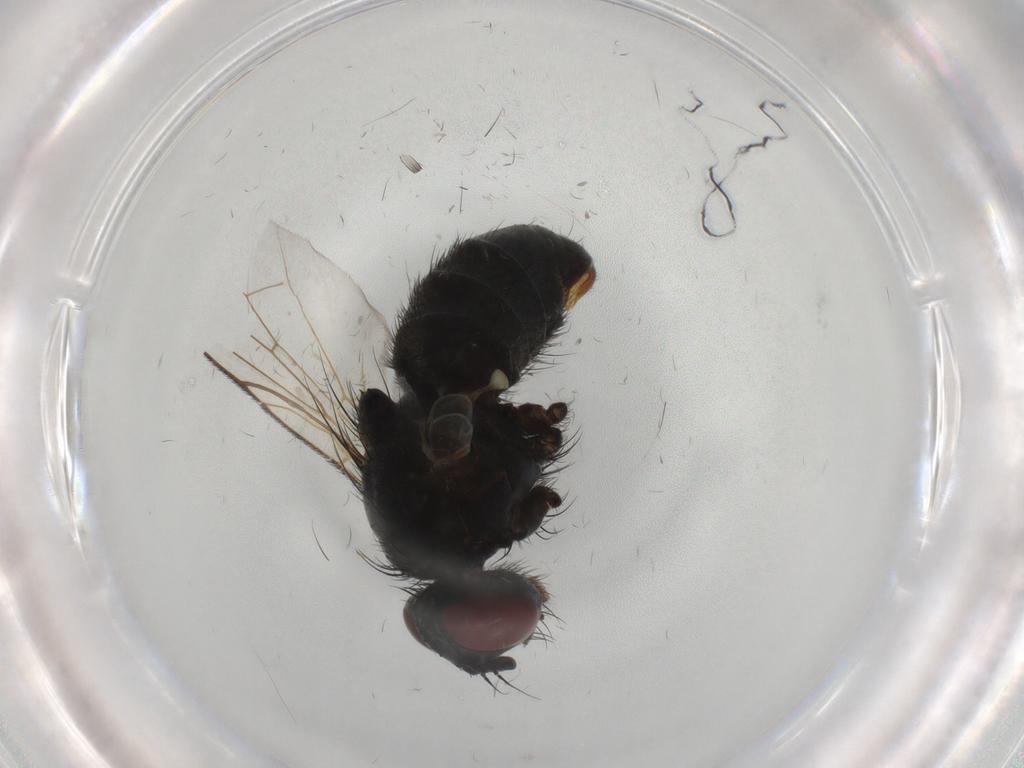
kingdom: Animalia
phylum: Arthropoda
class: Insecta
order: Diptera
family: Muscidae
